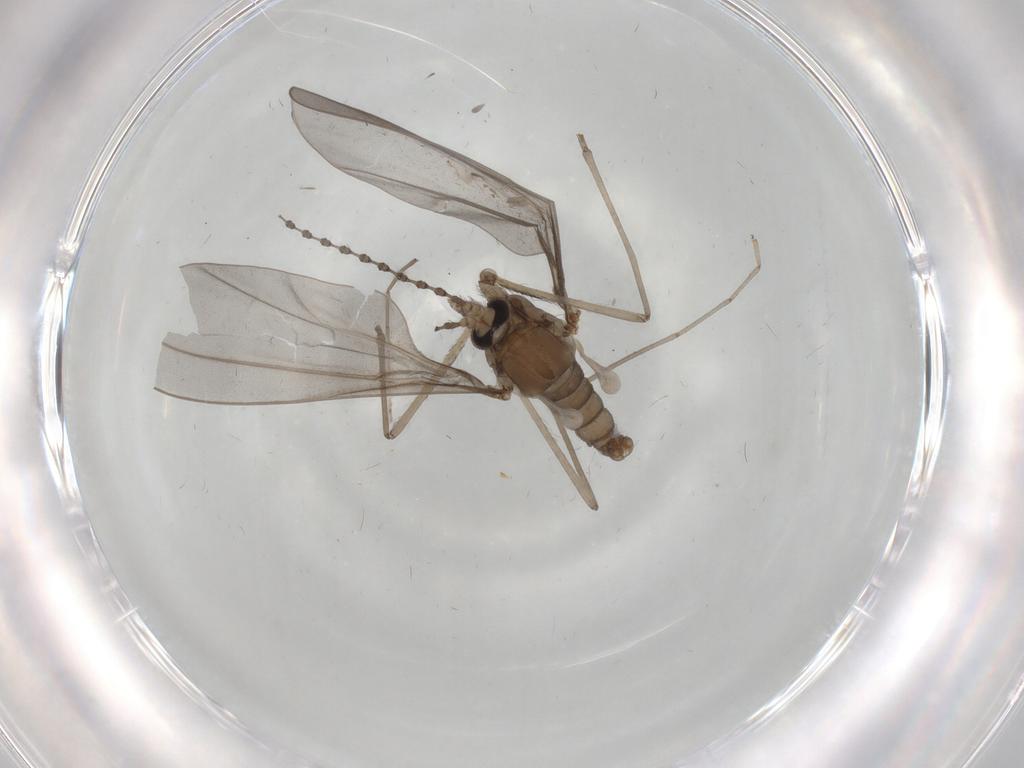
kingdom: Animalia
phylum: Arthropoda
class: Insecta
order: Diptera
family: Cecidomyiidae
